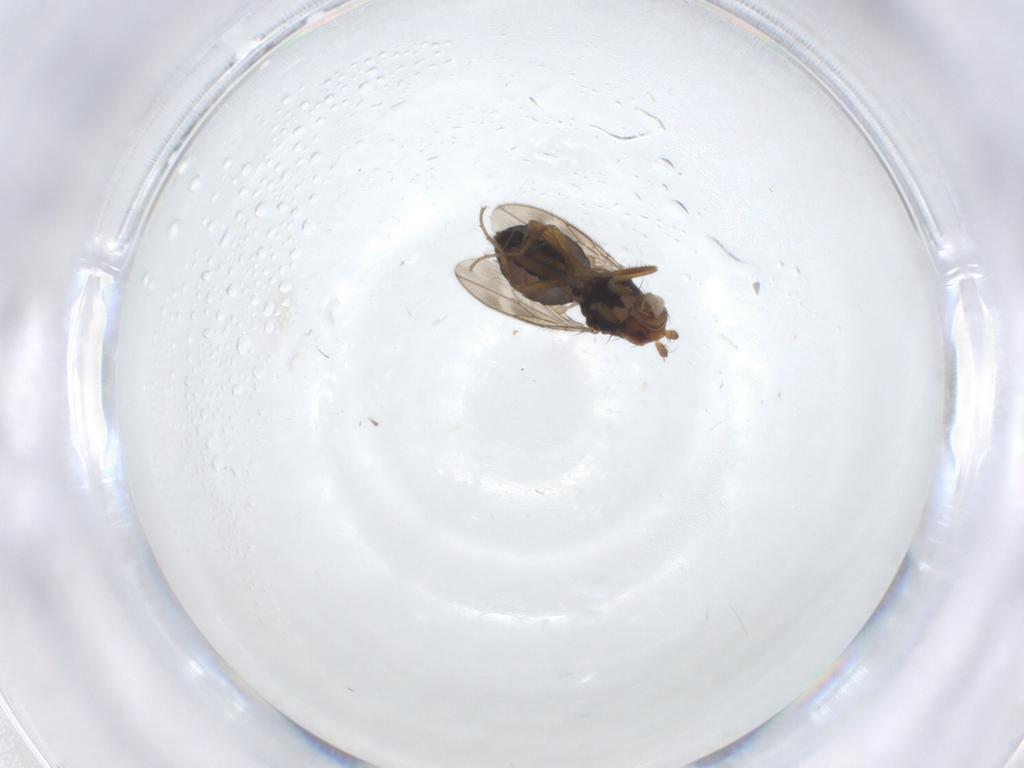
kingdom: Animalia
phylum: Arthropoda
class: Insecta
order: Diptera
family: Sphaeroceridae
